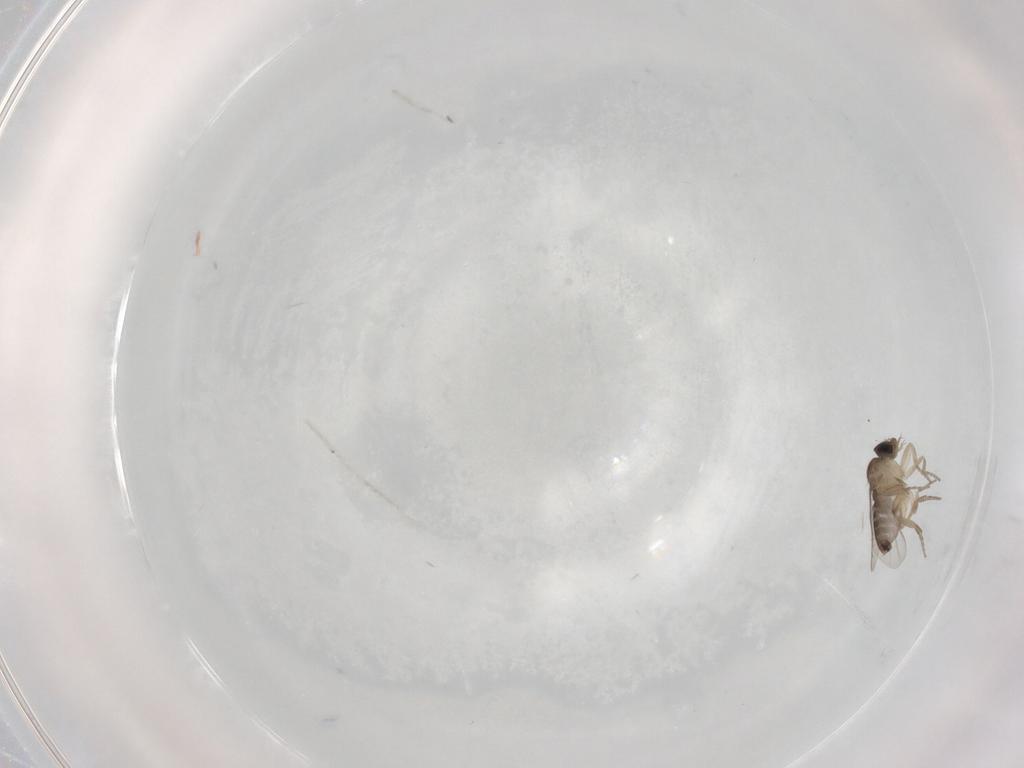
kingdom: Animalia
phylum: Arthropoda
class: Insecta
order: Diptera
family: Phoridae
